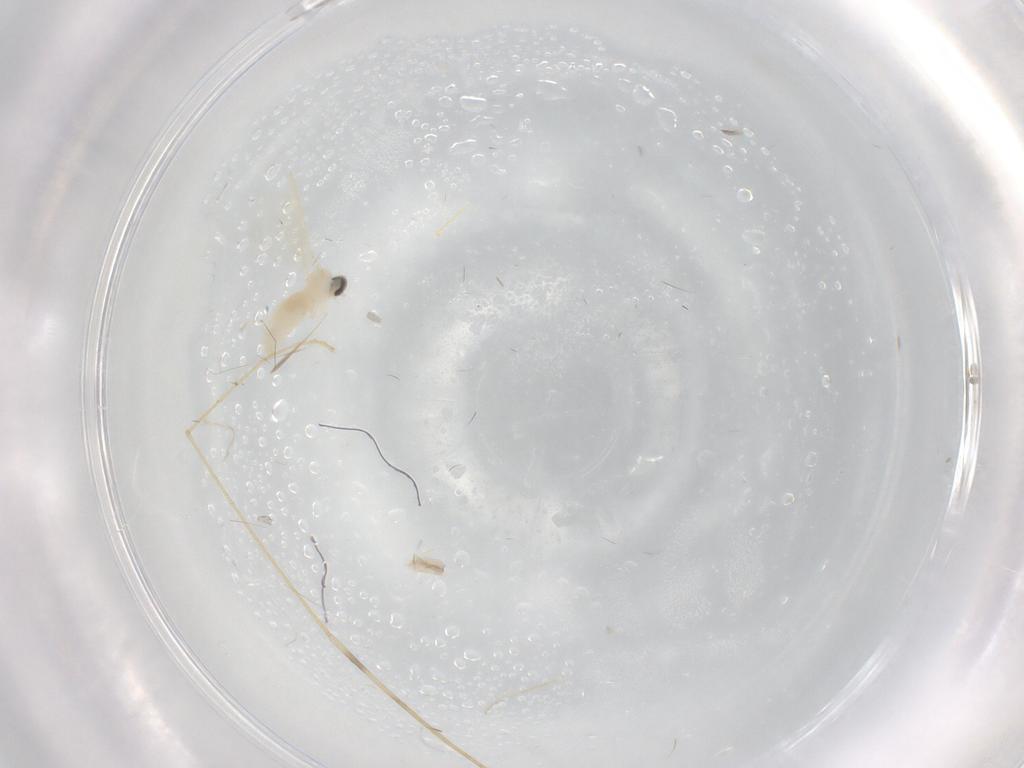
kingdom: Animalia
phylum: Arthropoda
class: Insecta
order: Diptera
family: Cecidomyiidae
